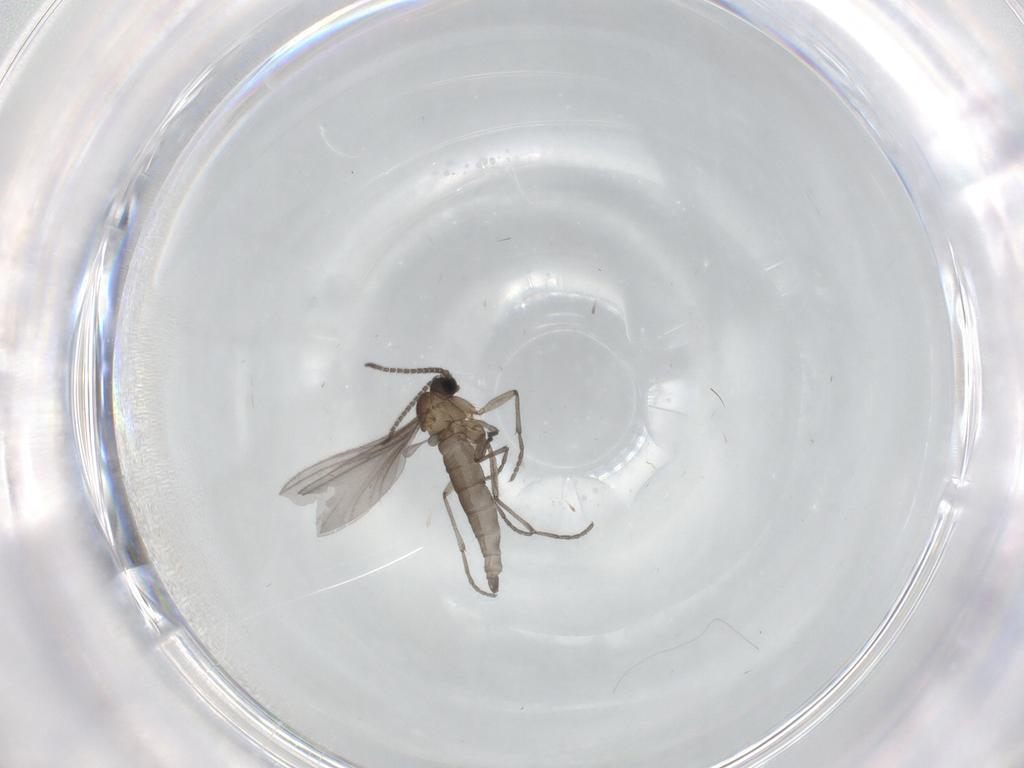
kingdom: Animalia
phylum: Arthropoda
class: Insecta
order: Diptera
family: Sciaridae
